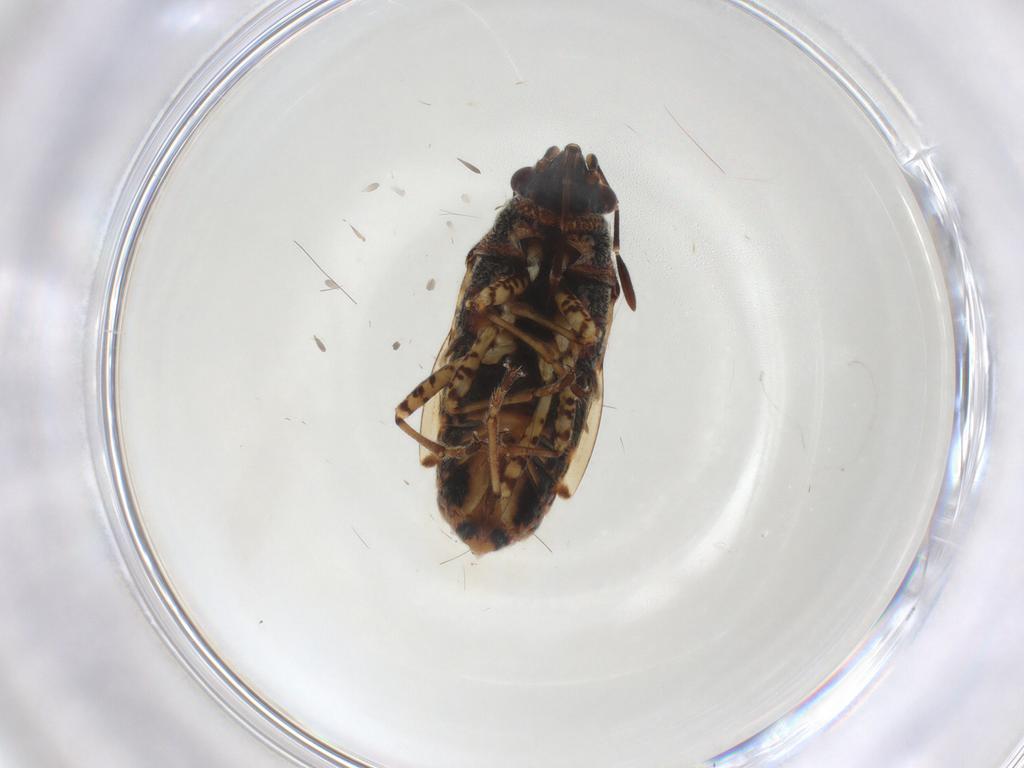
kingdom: Animalia
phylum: Arthropoda
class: Insecta
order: Hemiptera
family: Lygaeidae
